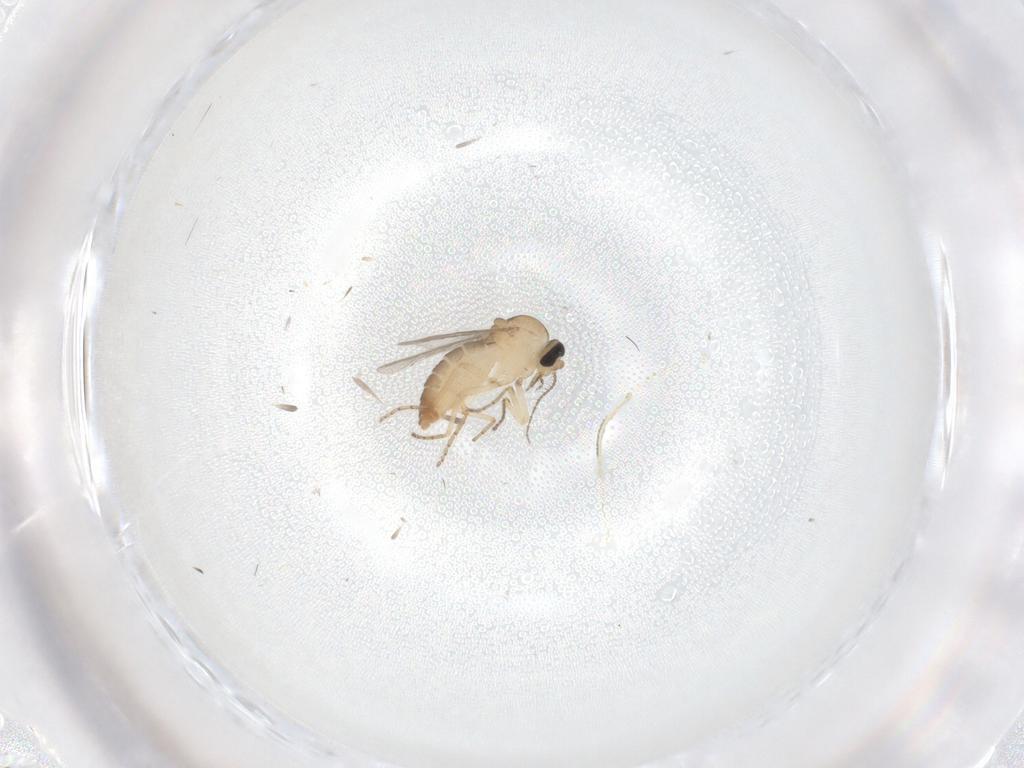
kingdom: Animalia
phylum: Arthropoda
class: Insecta
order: Diptera
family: Ceratopogonidae
